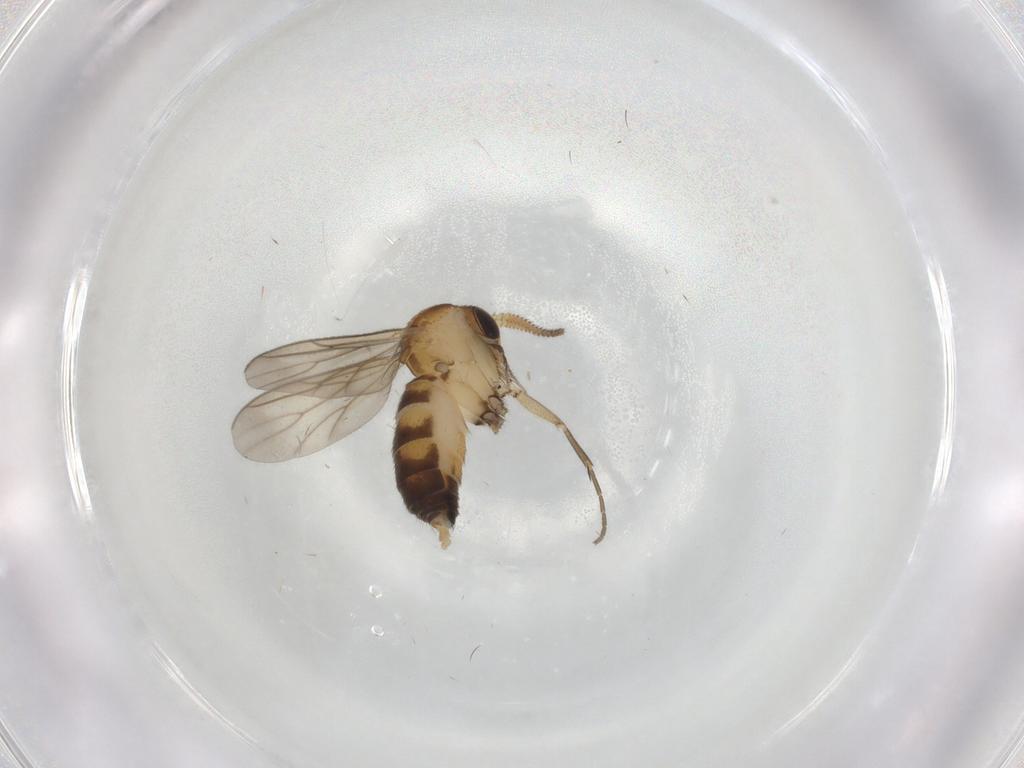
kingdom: Animalia
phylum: Arthropoda
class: Insecta
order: Diptera
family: Mycetophilidae
